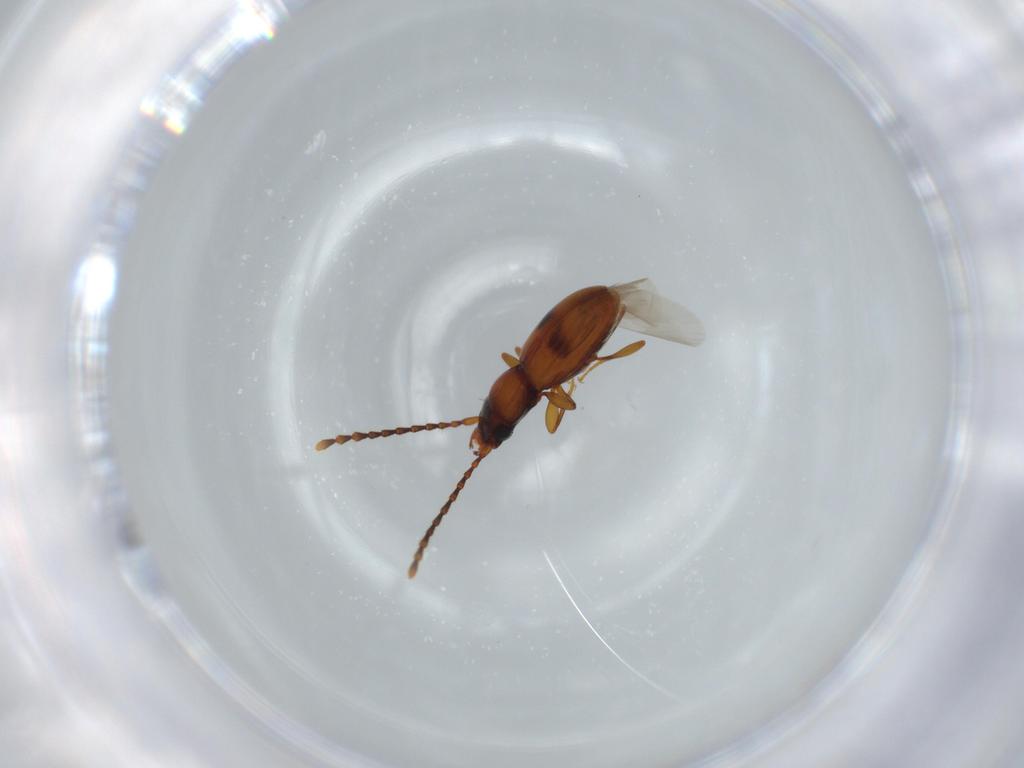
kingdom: Animalia
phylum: Arthropoda
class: Insecta
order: Coleoptera
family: Laemophloeidae
